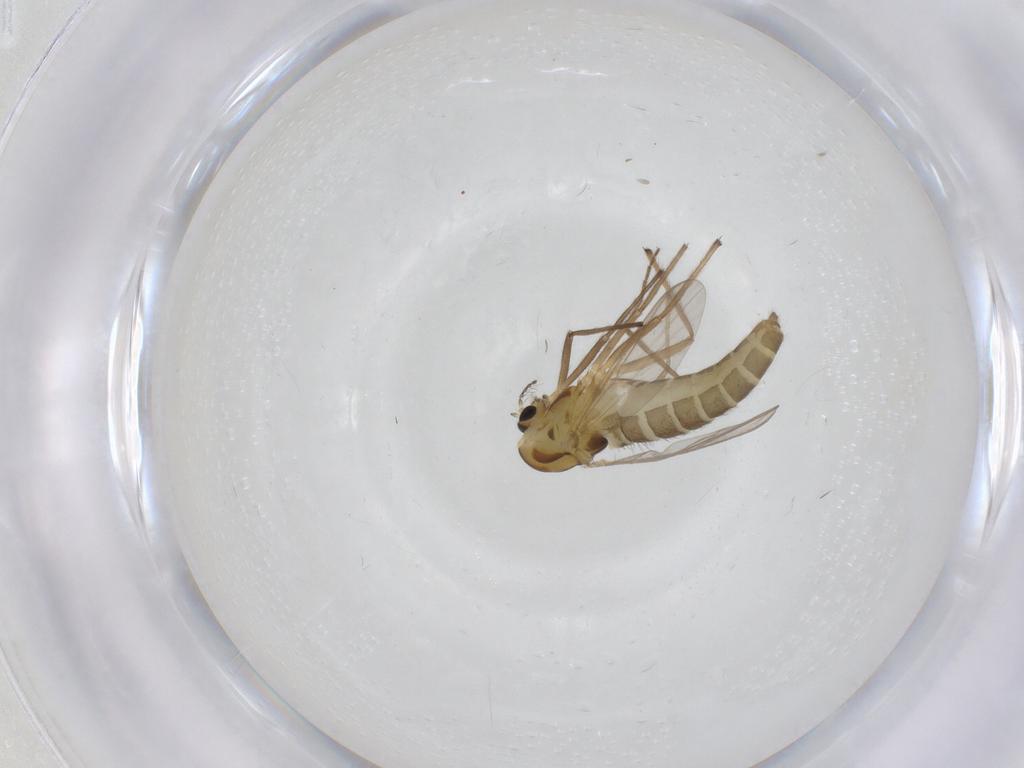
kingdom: Animalia
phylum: Arthropoda
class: Insecta
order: Diptera
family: Chironomidae
